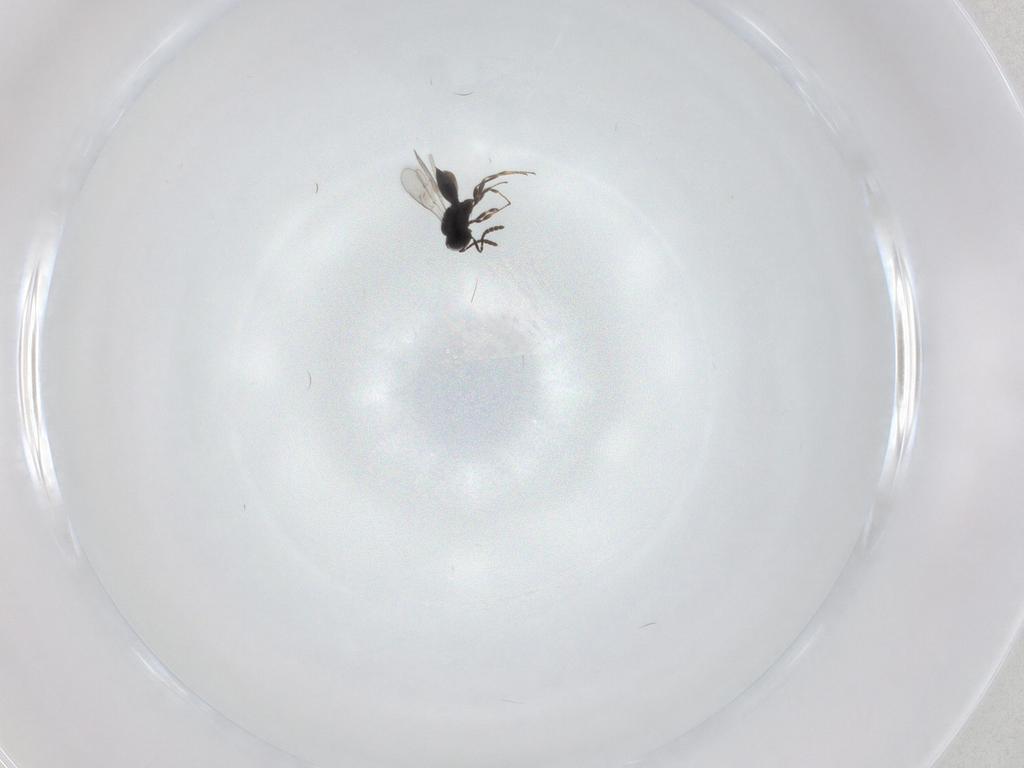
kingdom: Animalia
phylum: Arthropoda
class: Insecta
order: Hymenoptera
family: Scelionidae
